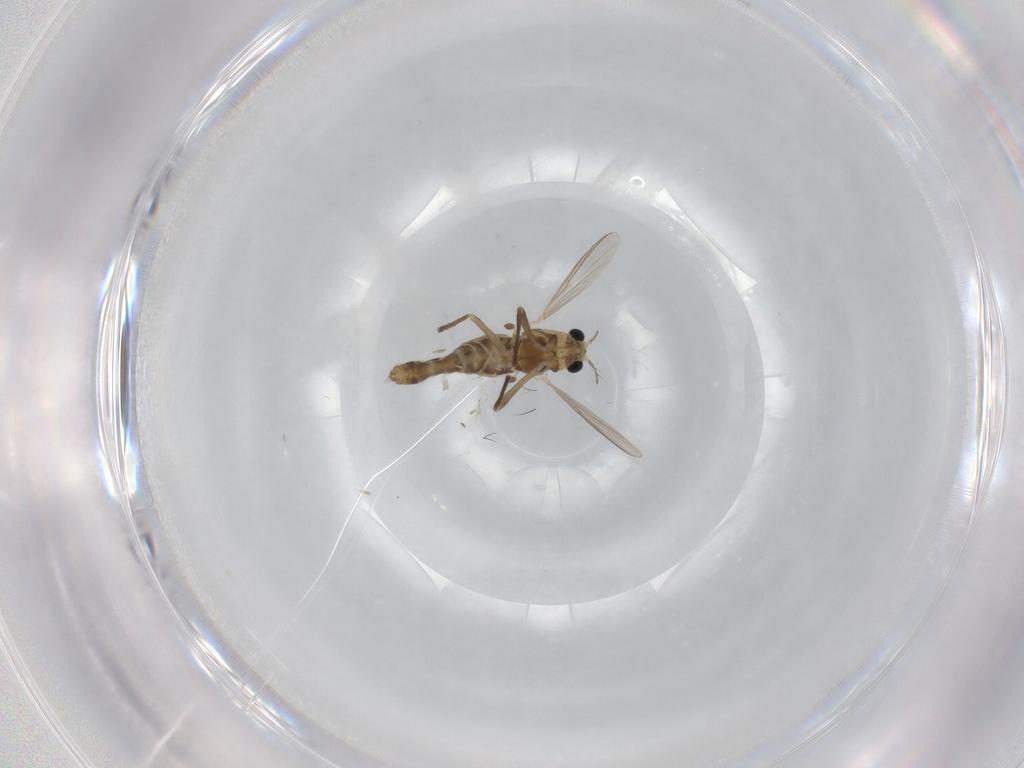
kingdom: Animalia
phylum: Arthropoda
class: Insecta
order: Diptera
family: Chironomidae
